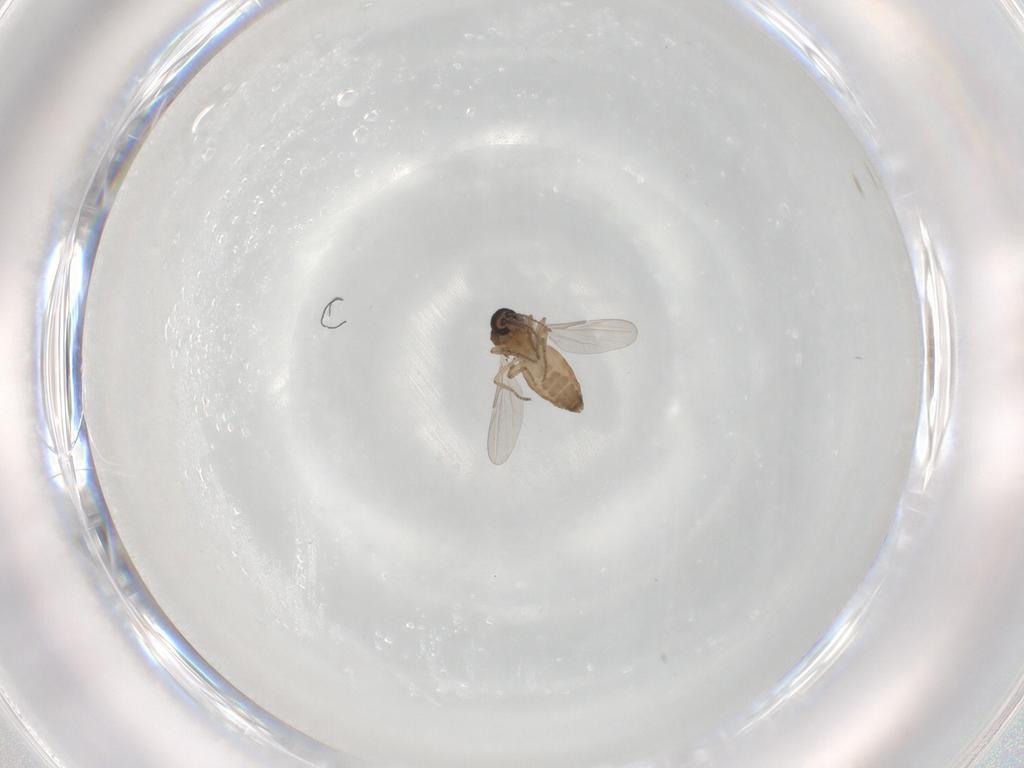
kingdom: Animalia
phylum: Arthropoda
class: Insecta
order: Diptera
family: Ceratopogonidae
